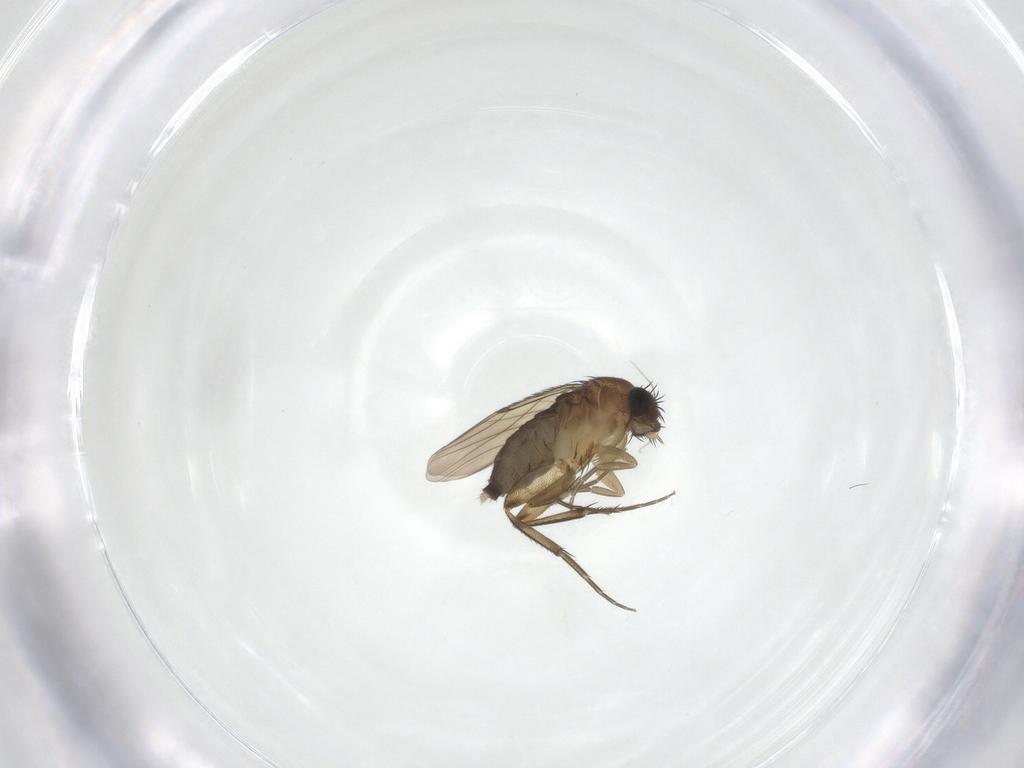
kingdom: Animalia
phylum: Arthropoda
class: Insecta
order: Diptera
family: Phoridae
